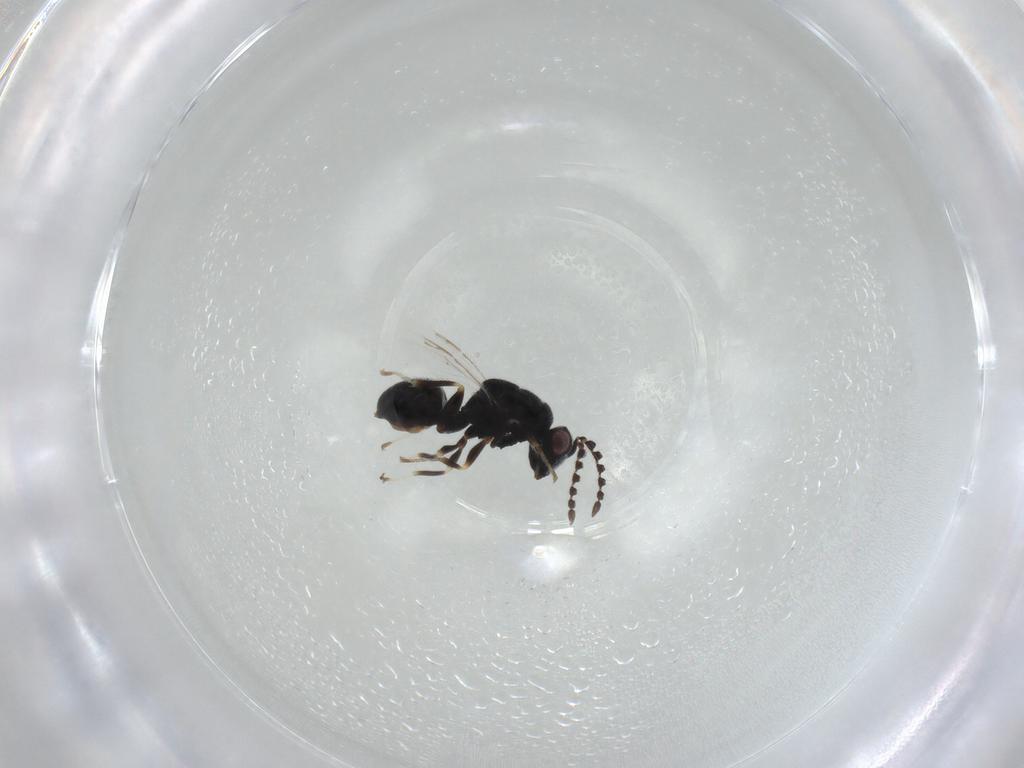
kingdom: Animalia
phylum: Arthropoda
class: Insecta
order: Hymenoptera
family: Eurytomidae
